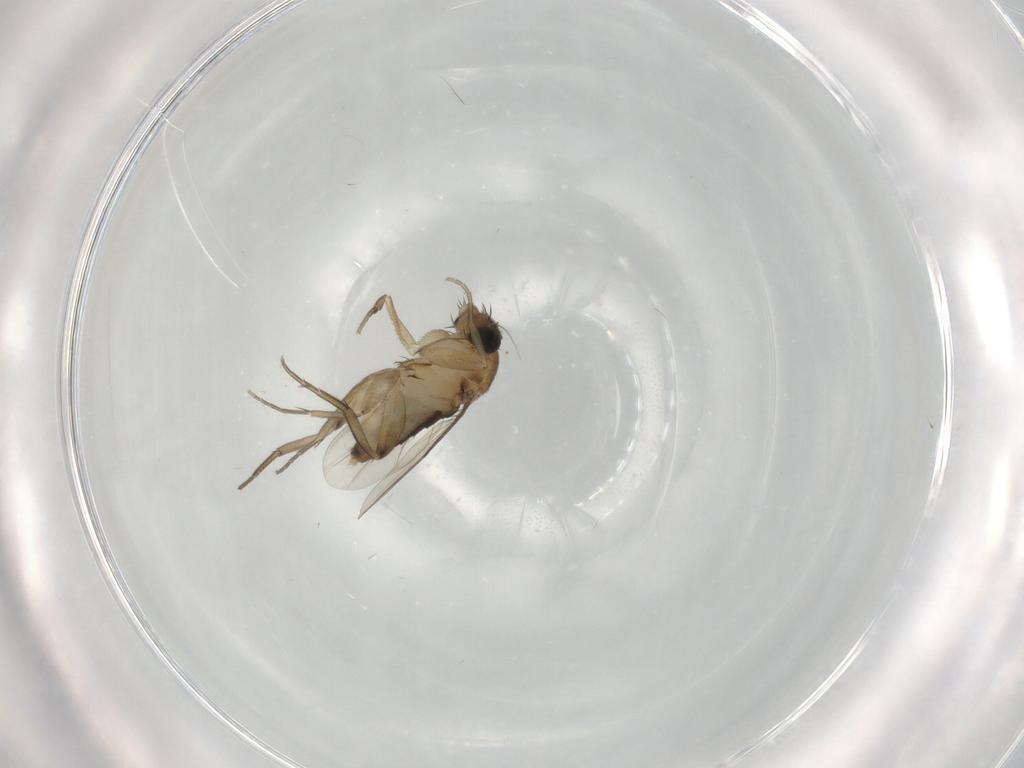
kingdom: Animalia
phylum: Arthropoda
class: Insecta
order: Diptera
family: Phoridae
